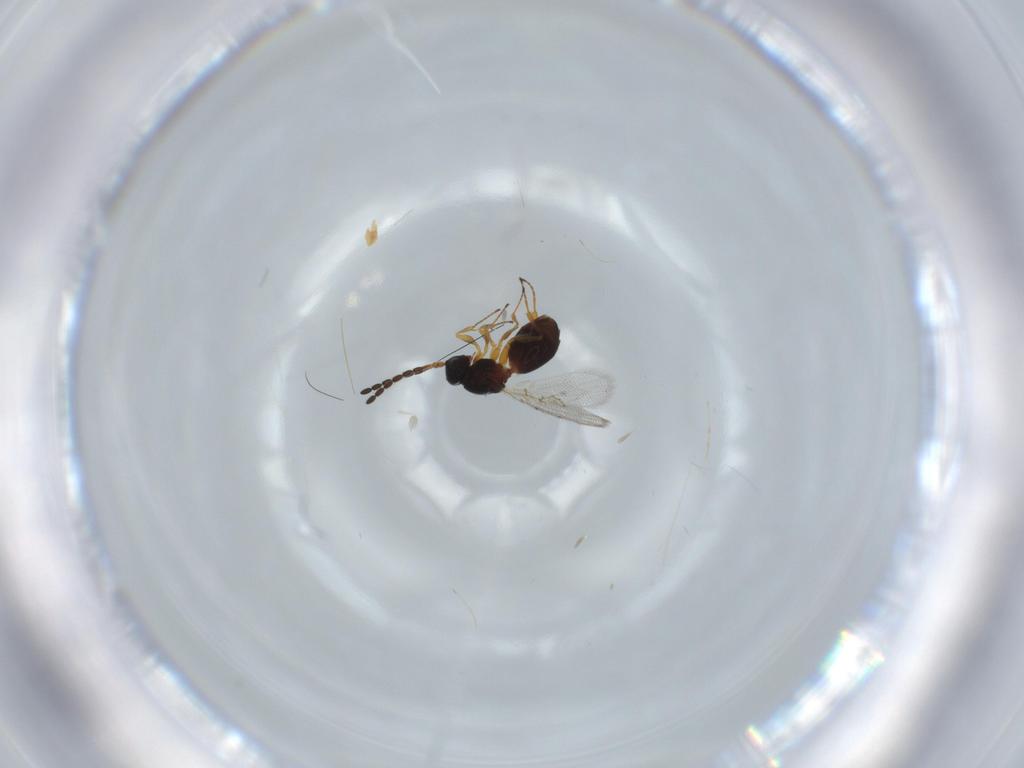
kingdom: Animalia
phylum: Arthropoda
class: Insecta
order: Hymenoptera
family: Figitidae
